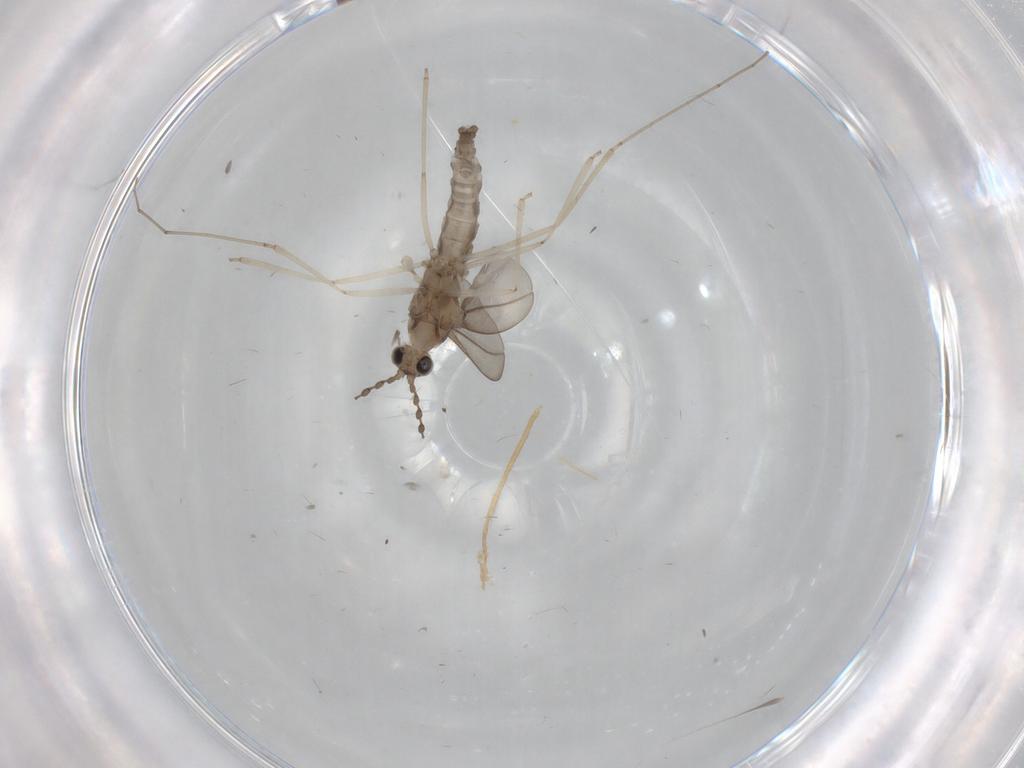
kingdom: Animalia
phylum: Arthropoda
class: Insecta
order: Diptera
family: Cecidomyiidae
